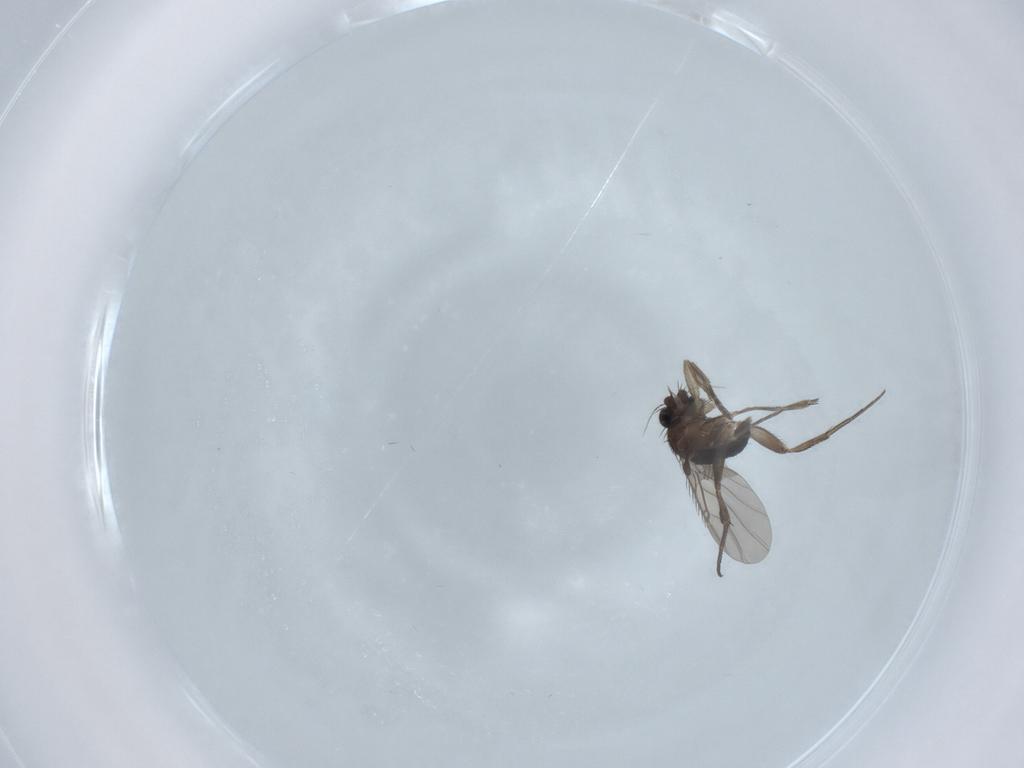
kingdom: Animalia
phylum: Arthropoda
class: Insecta
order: Diptera
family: Phoridae
